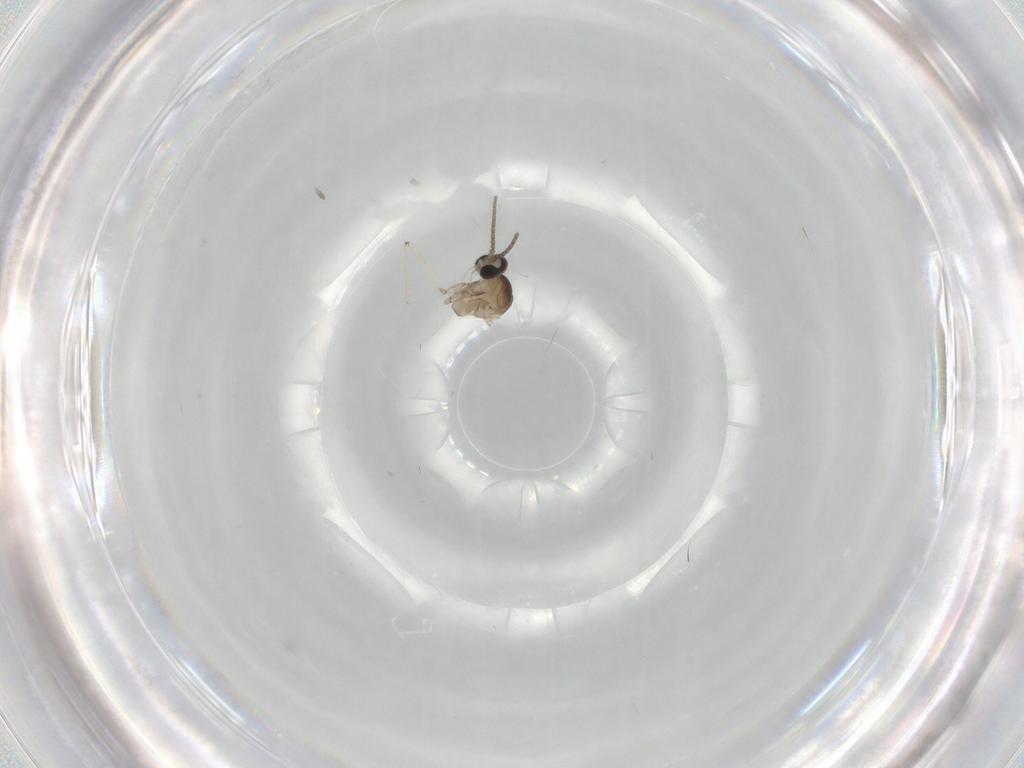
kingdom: Animalia
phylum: Arthropoda
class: Insecta
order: Diptera
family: Cecidomyiidae
